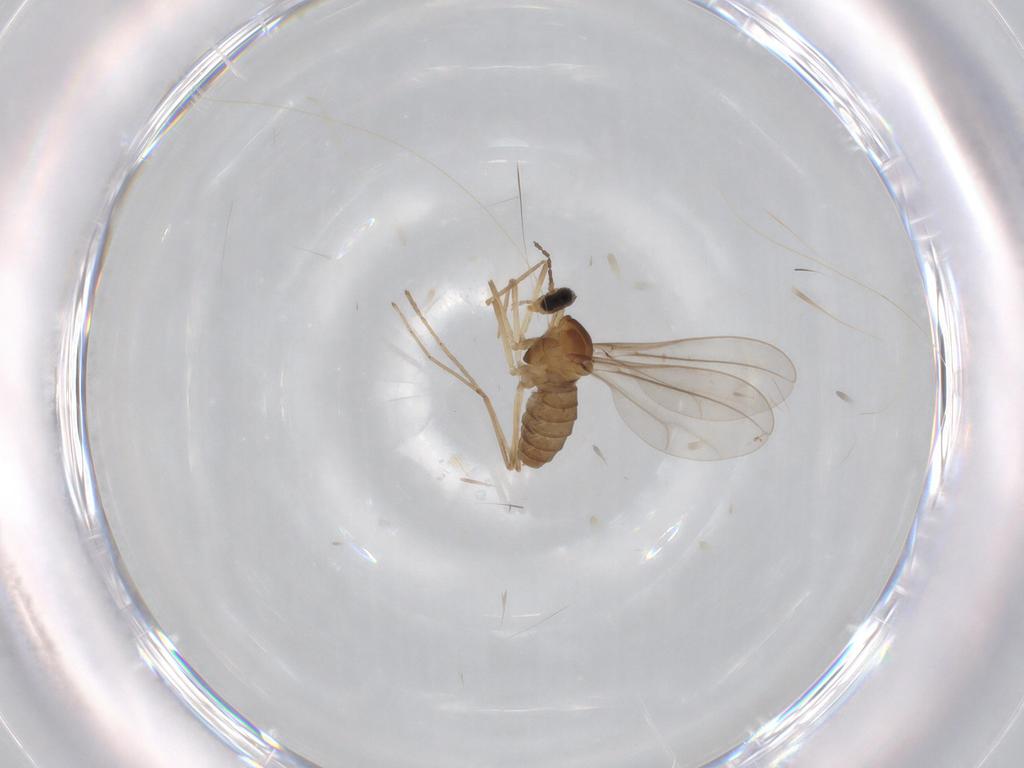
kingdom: Animalia
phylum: Arthropoda
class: Insecta
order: Diptera
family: Cecidomyiidae
